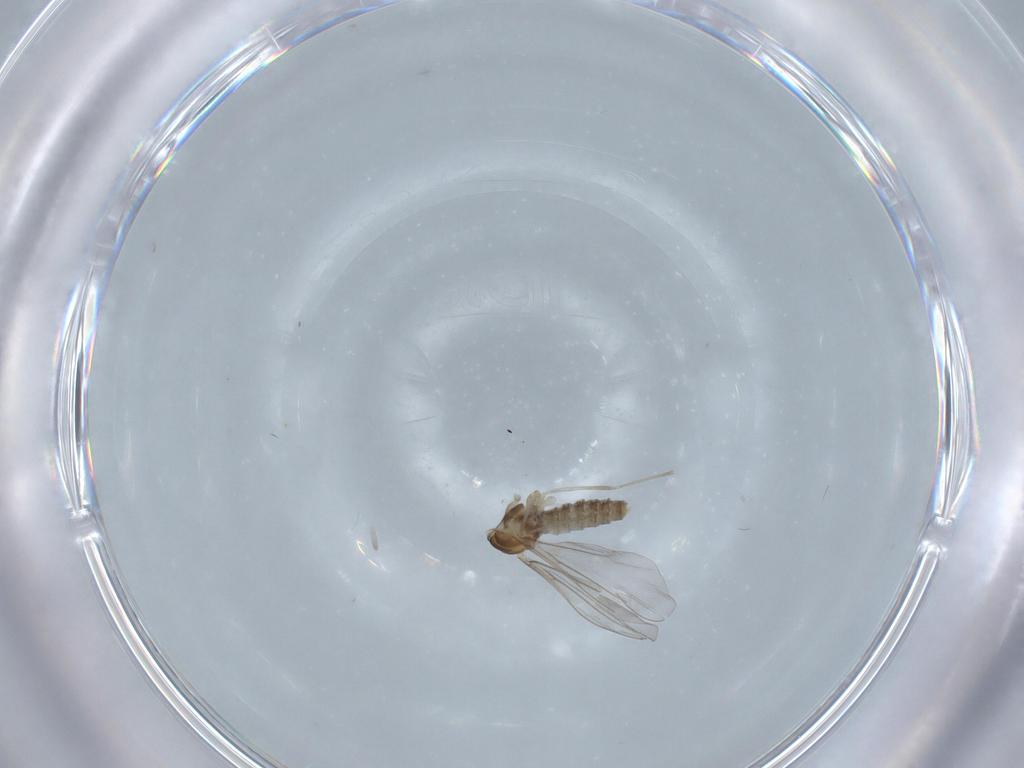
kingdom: Animalia
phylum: Arthropoda
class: Insecta
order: Diptera
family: Cecidomyiidae
